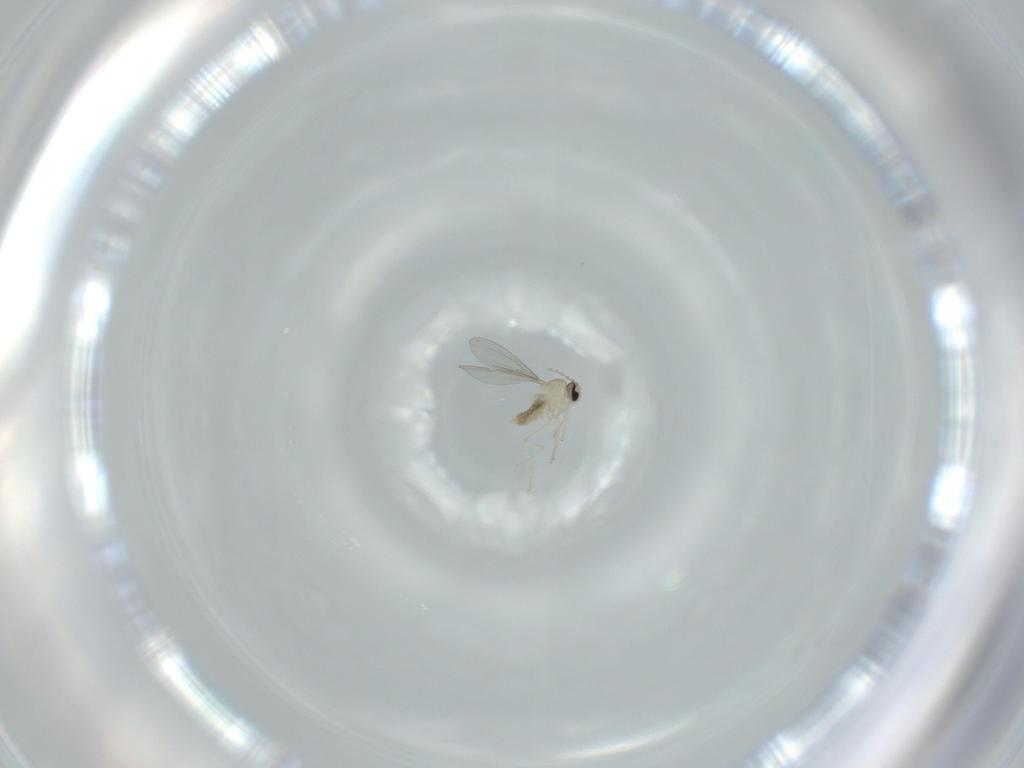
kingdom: Animalia
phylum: Arthropoda
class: Insecta
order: Diptera
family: Cecidomyiidae
